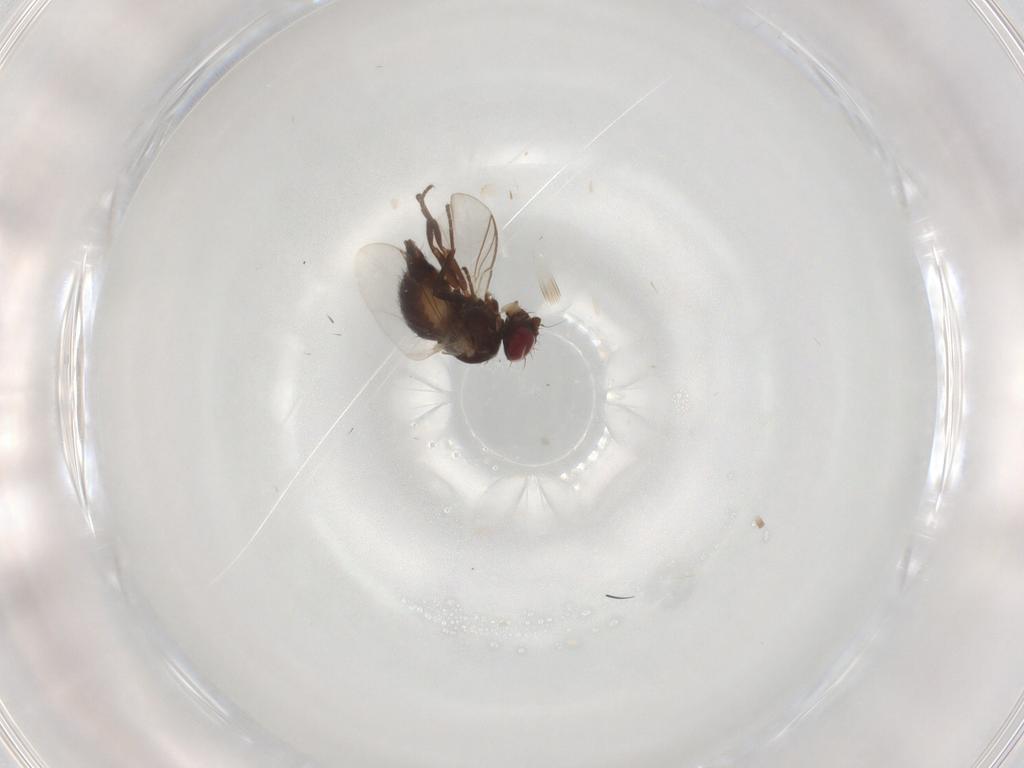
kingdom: Animalia
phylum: Arthropoda
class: Insecta
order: Diptera
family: Dolichopodidae
